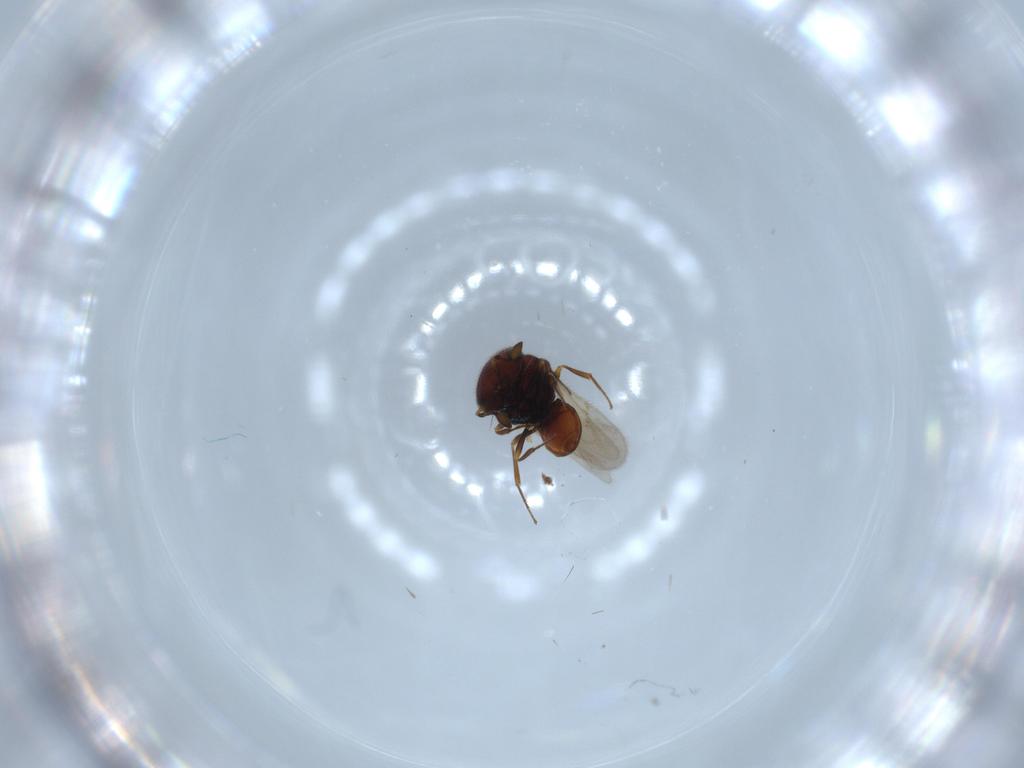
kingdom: Animalia
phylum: Arthropoda
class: Insecta
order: Hymenoptera
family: Scelionidae
